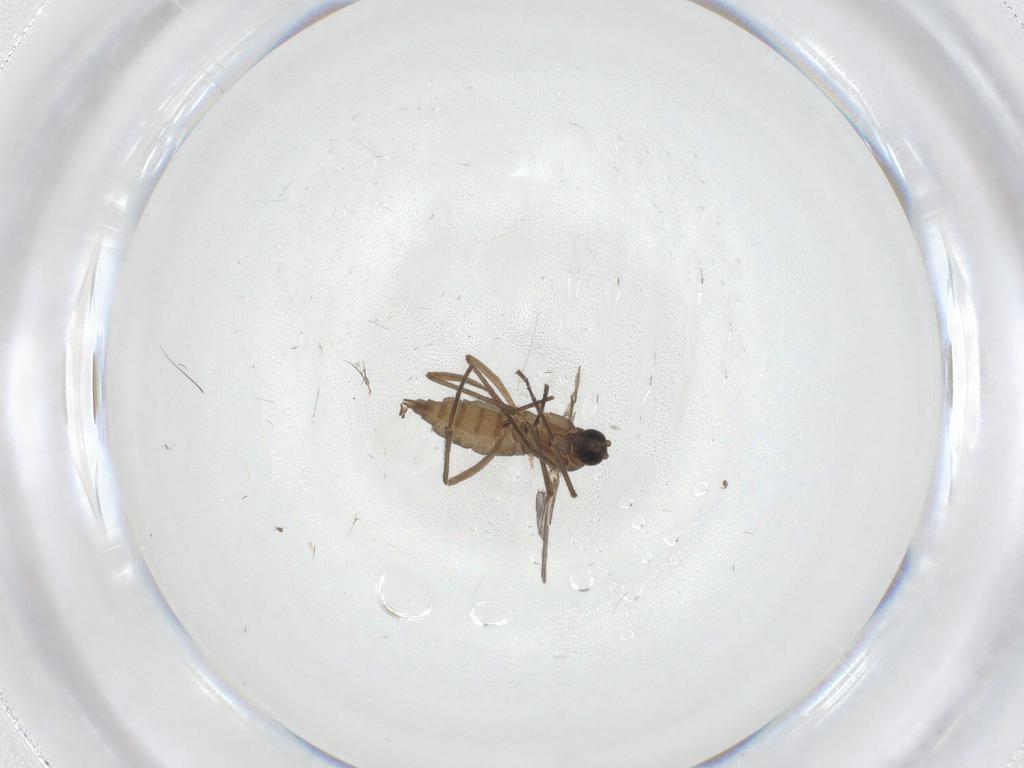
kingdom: Animalia
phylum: Arthropoda
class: Insecta
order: Diptera
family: Sciaridae
